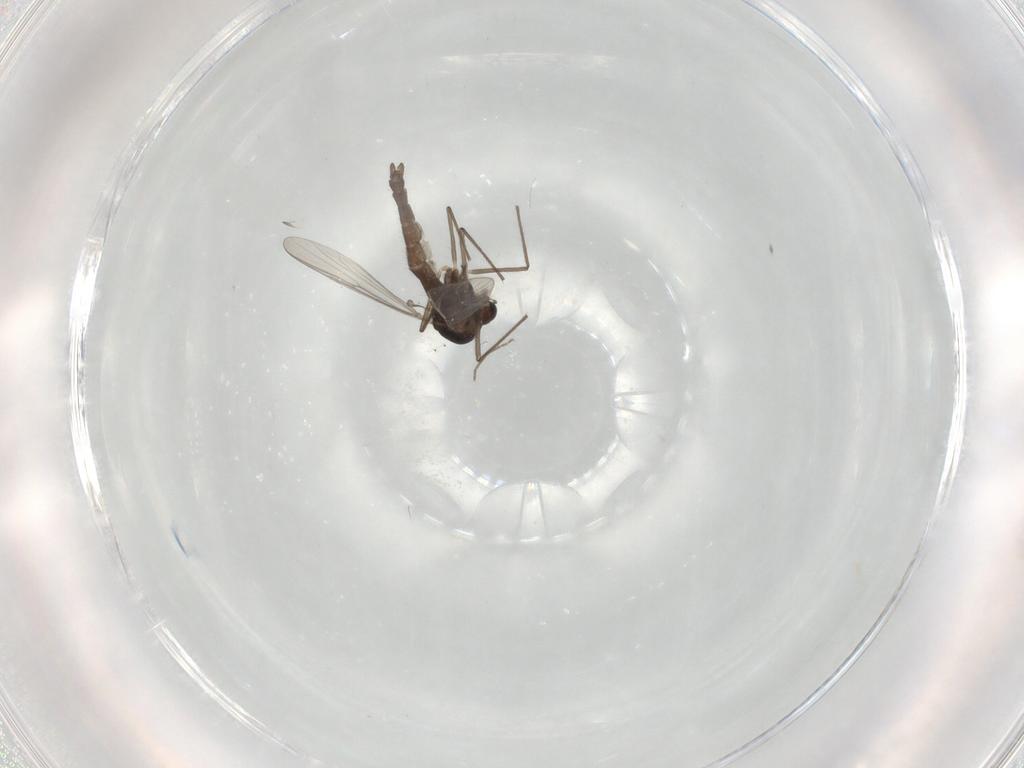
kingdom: Animalia
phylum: Arthropoda
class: Insecta
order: Diptera
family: Chironomidae
